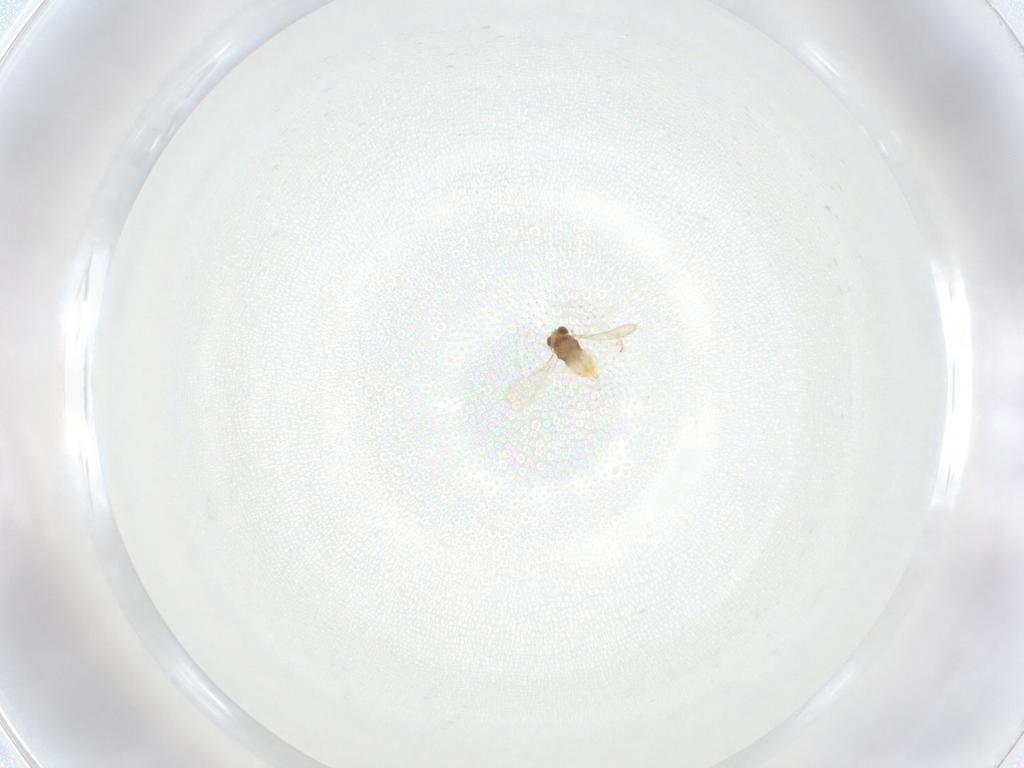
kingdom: Animalia
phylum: Arthropoda
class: Insecta
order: Hymenoptera
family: Aphelinidae
